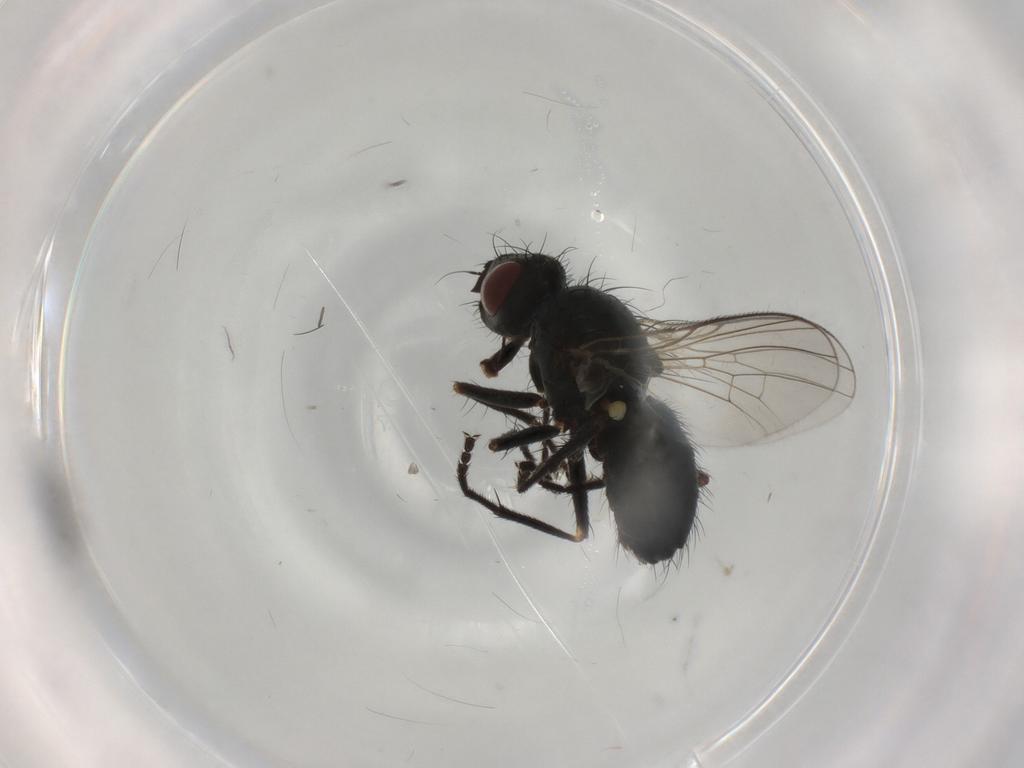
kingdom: Animalia
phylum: Arthropoda
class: Insecta
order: Diptera
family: Muscidae
